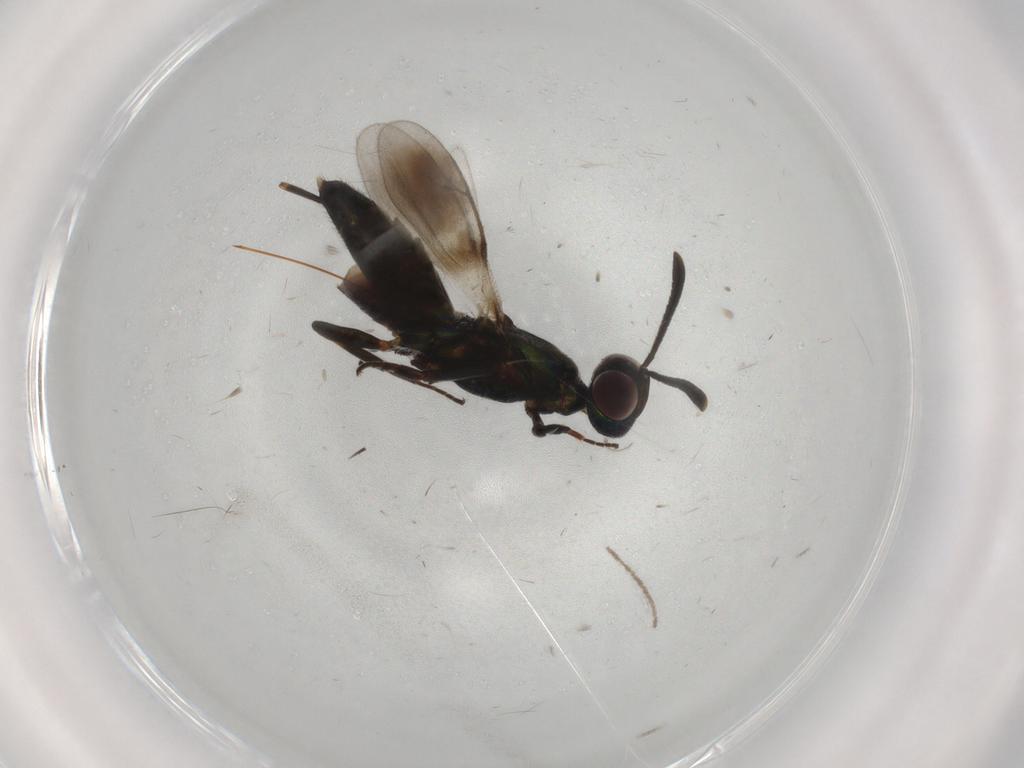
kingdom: Animalia
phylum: Arthropoda
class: Insecta
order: Hymenoptera
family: Eupelmidae
